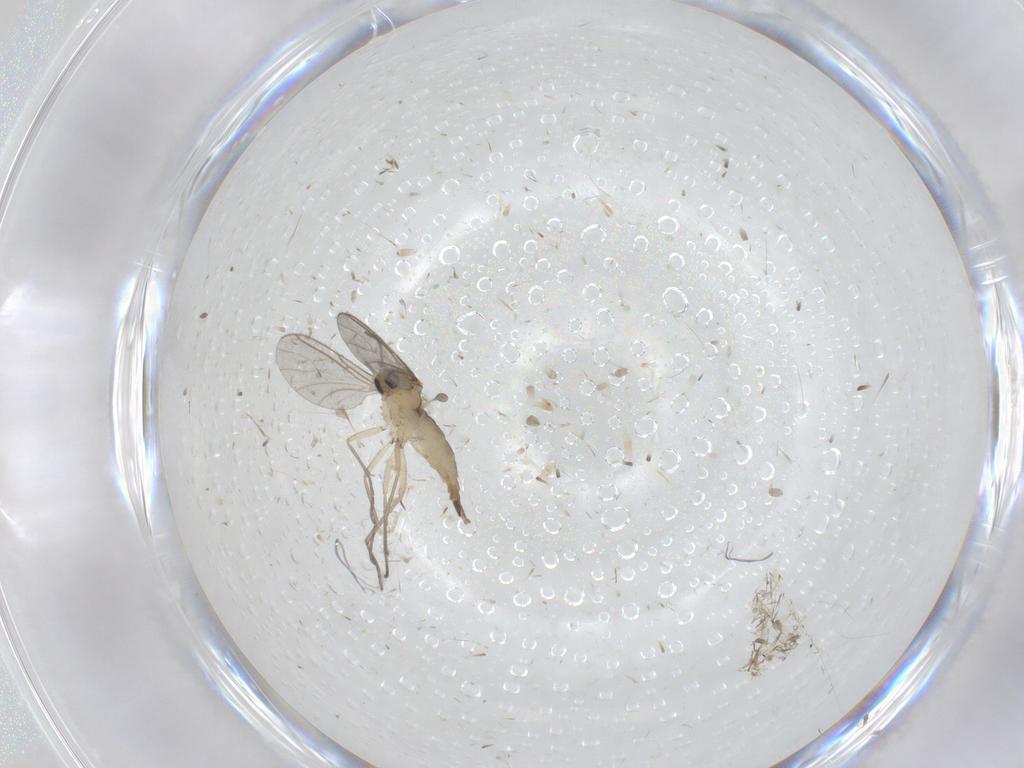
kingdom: Animalia
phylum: Arthropoda
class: Insecta
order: Diptera
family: Sciaridae
